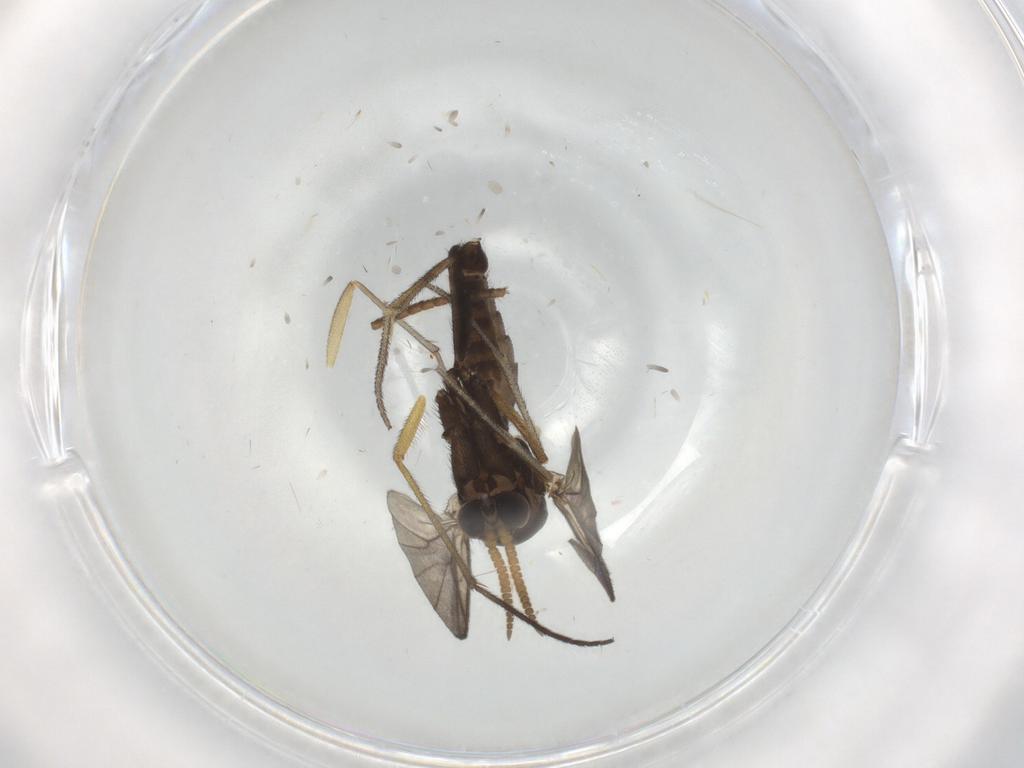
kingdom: Animalia
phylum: Arthropoda
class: Insecta
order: Diptera
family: Mycetophilidae
